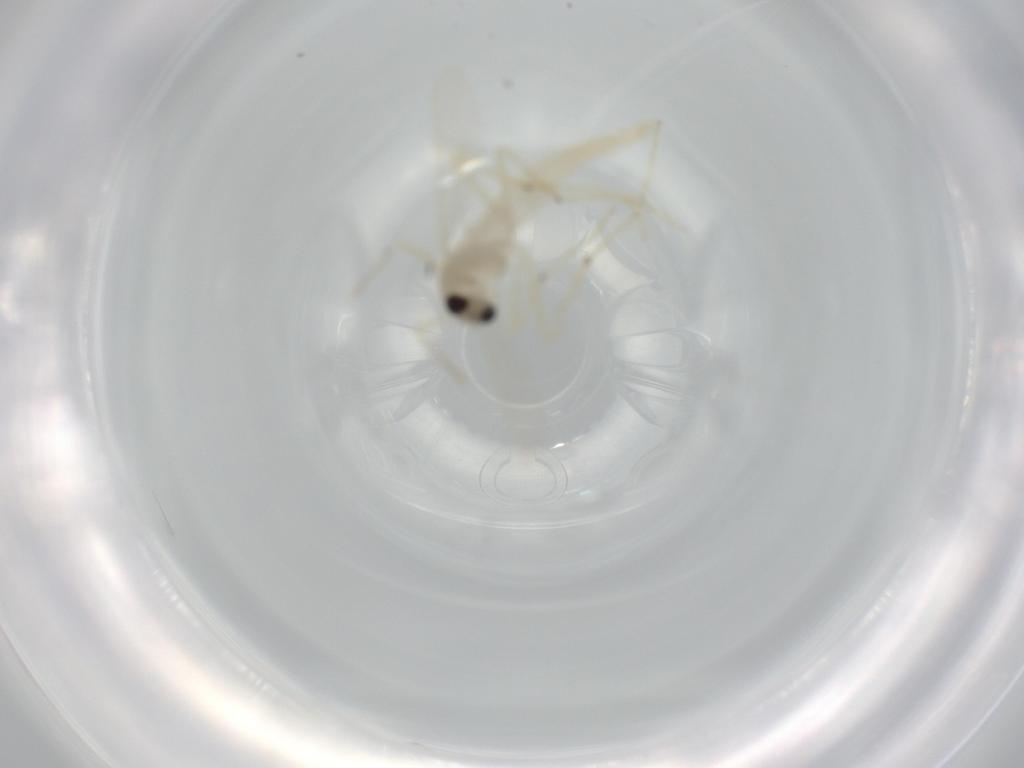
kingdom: Animalia
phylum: Arthropoda
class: Insecta
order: Diptera
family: Chironomidae
